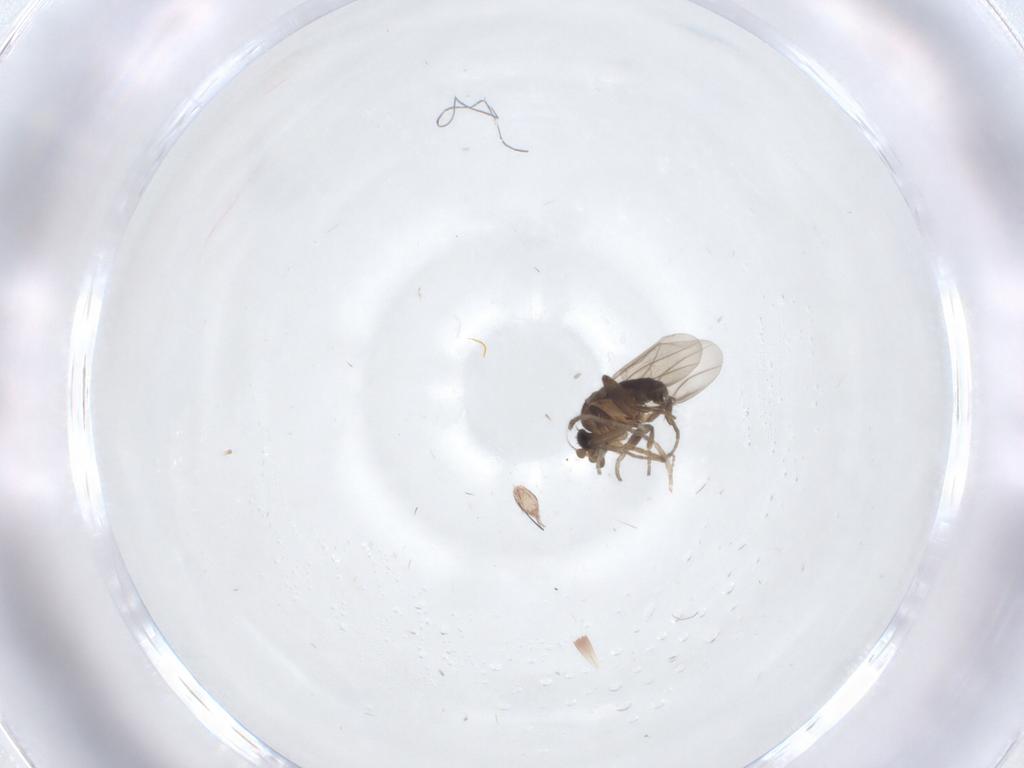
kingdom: Animalia
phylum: Arthropoda
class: Insecta
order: Diptera
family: Phoridae
